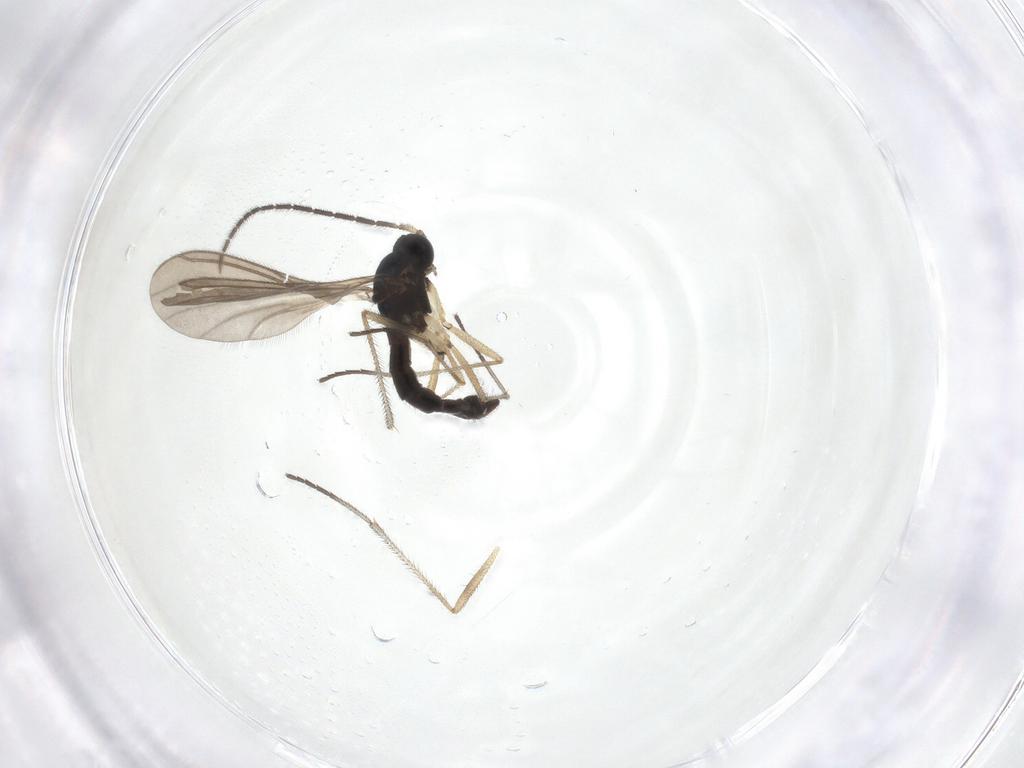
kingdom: Animalia
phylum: Arthropoda
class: Insecta
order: Diptera
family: Sciaridae
